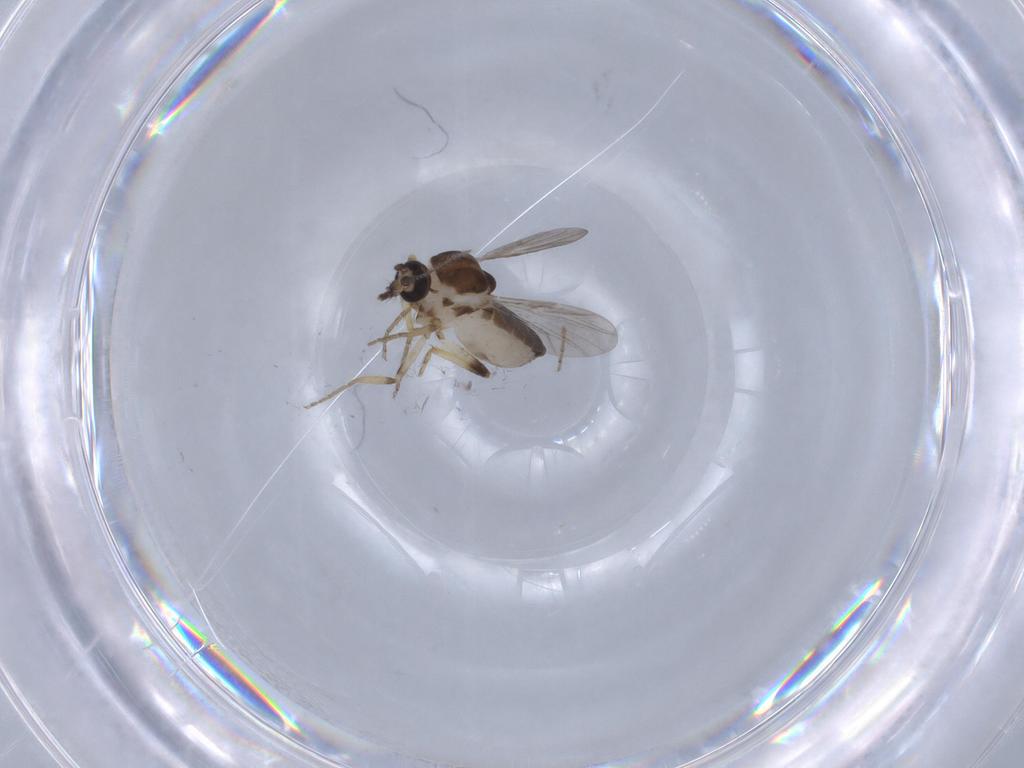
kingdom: Animalia
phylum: Arthropoda
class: Insecta
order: Diptera
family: Ceratopogonidae
